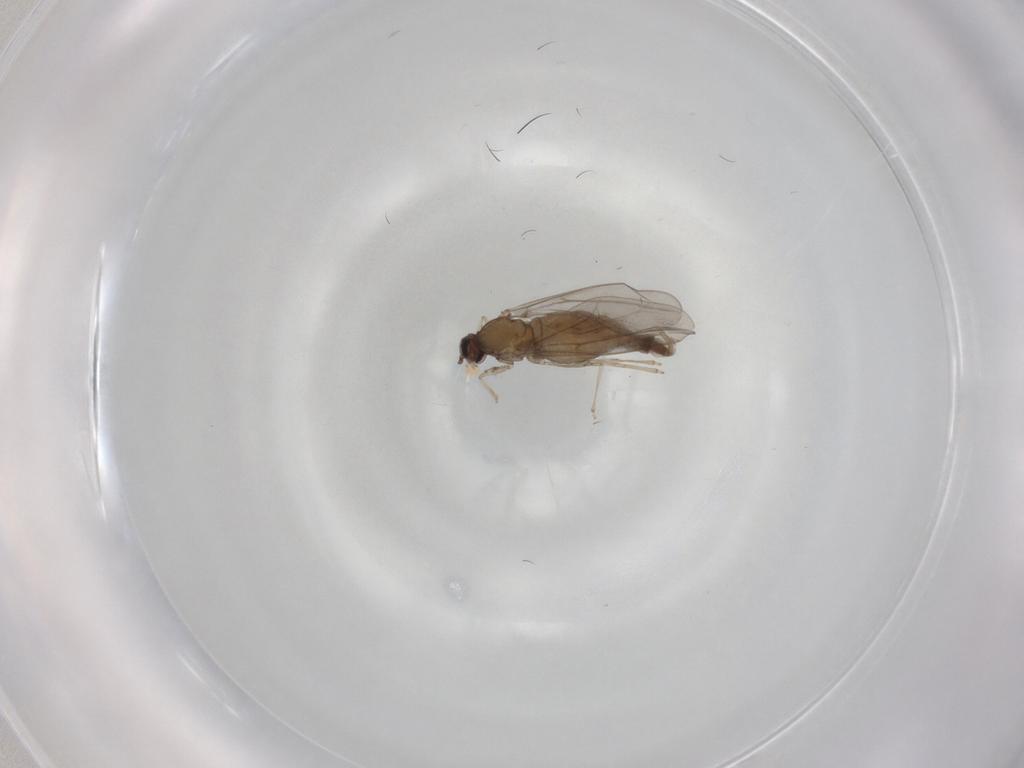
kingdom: Animalia
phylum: Arthropoda
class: Insecta
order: Diptera
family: Cecidomyiidae
